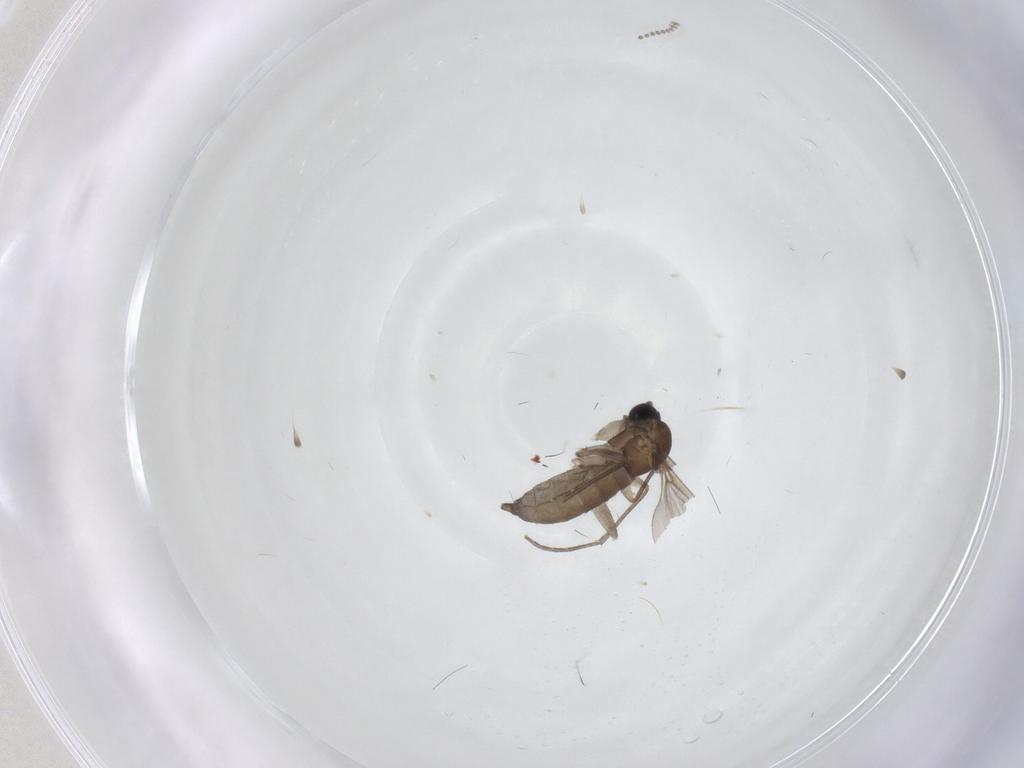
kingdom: Animalia
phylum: Arthropoda
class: Insecta
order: Diptera
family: Sciaridae
